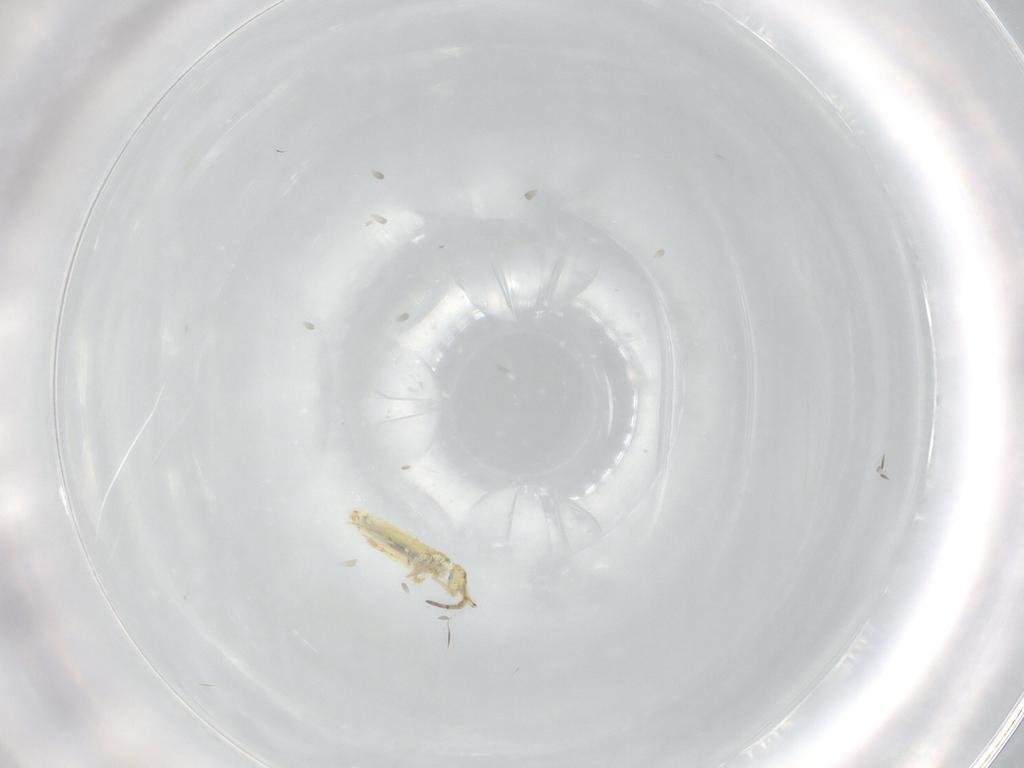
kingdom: Animalia
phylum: Arthropoda
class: Collembola
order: Entomobryomorpha
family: Paronellidae
